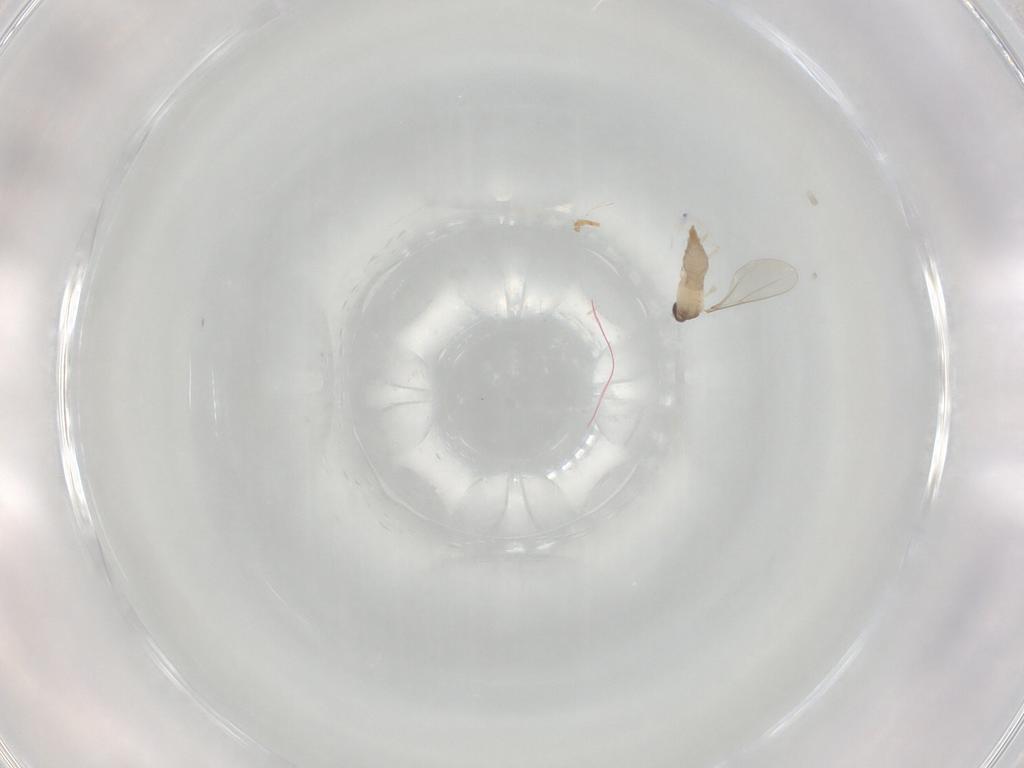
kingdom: Animalia
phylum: Arthropoda
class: Insecta
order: Diptera
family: Cecidomyiidae
